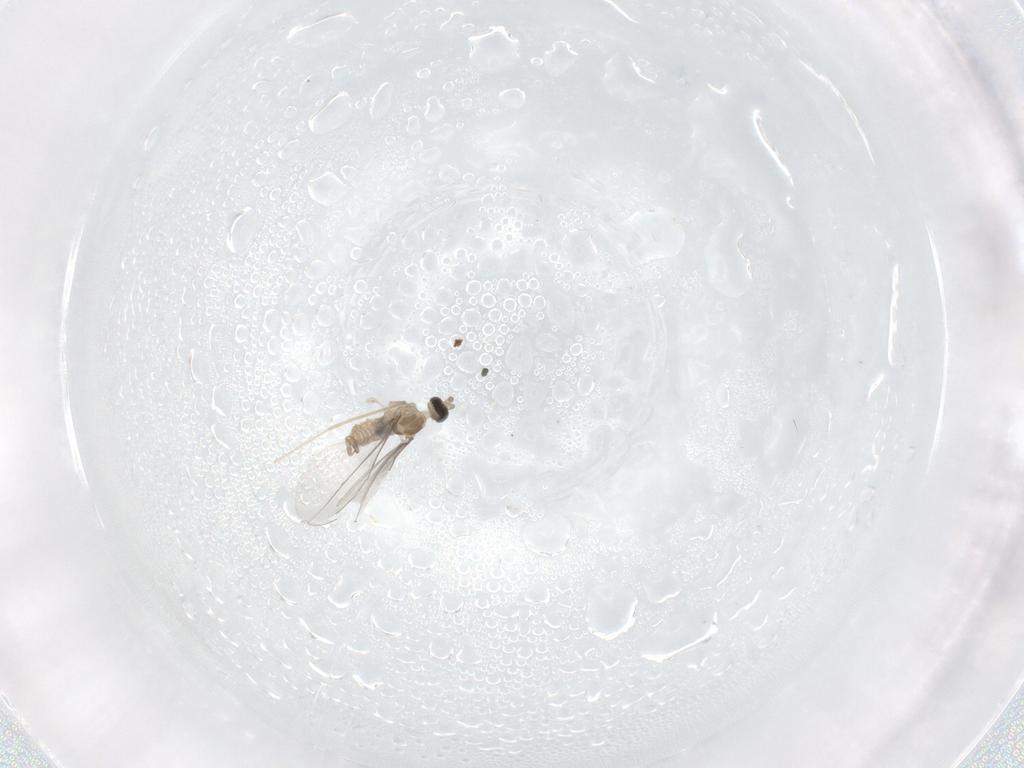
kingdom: Animalia
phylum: Arthropoda
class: Insecta
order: Diptera
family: Cecidomyiidae
